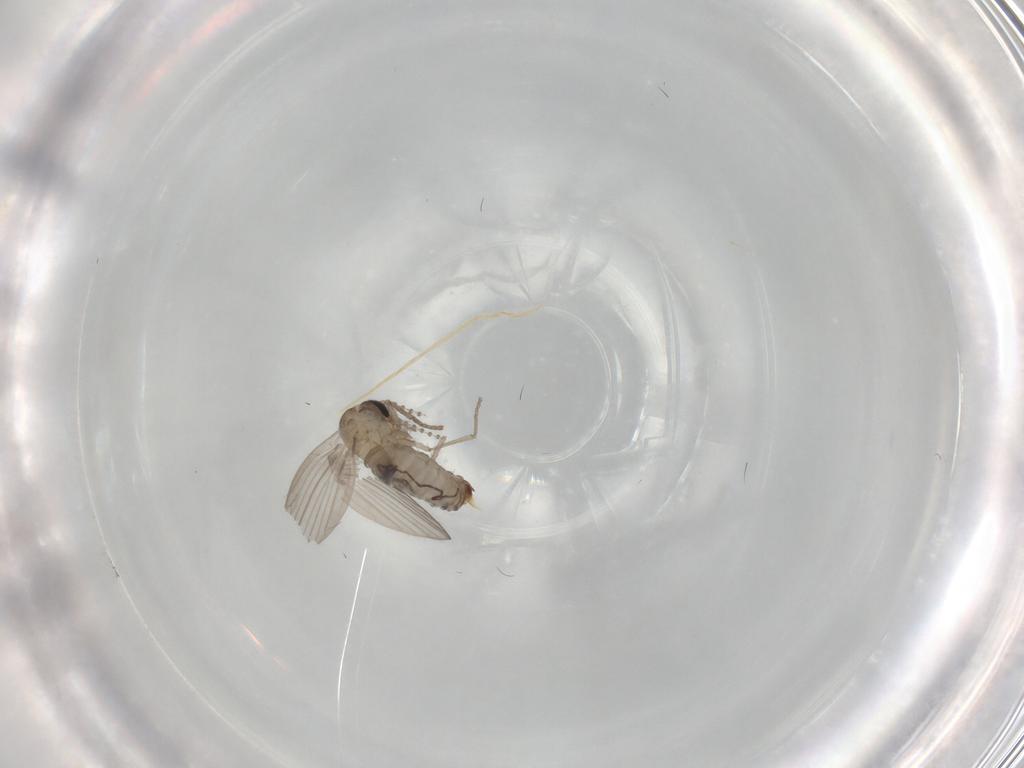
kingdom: Animalia
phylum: Arthropoda
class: Insecta
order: Diptera
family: Psychodidae
